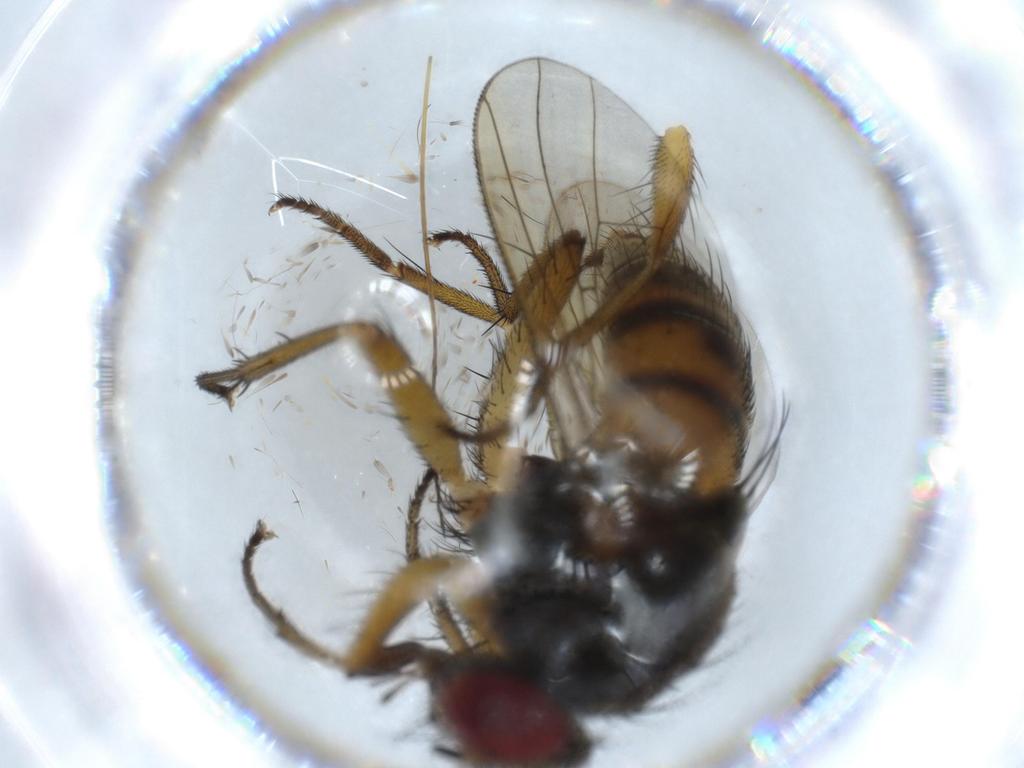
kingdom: Animalia
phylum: Arthropoda
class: Insecta
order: Diptera
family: Muscidae
